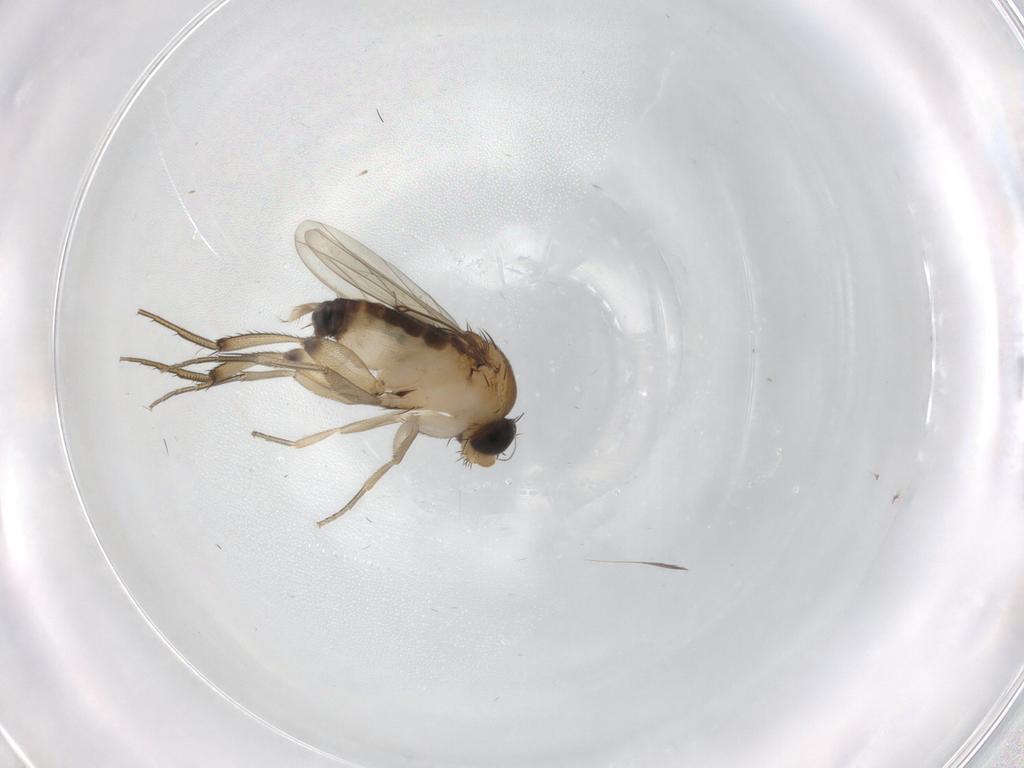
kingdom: Animalia
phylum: Arthropoda
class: Insecta
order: Diptera
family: Phoridae
